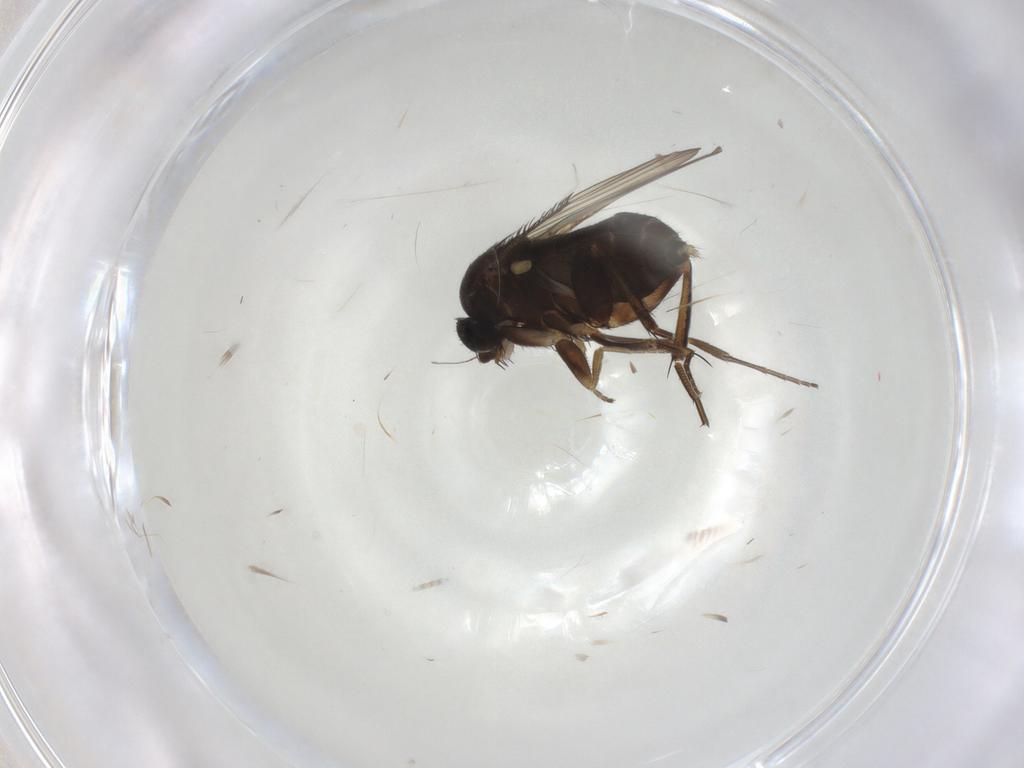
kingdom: Animalia
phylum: Arthropoda
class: Insecta
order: Diptera
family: Phoridae
